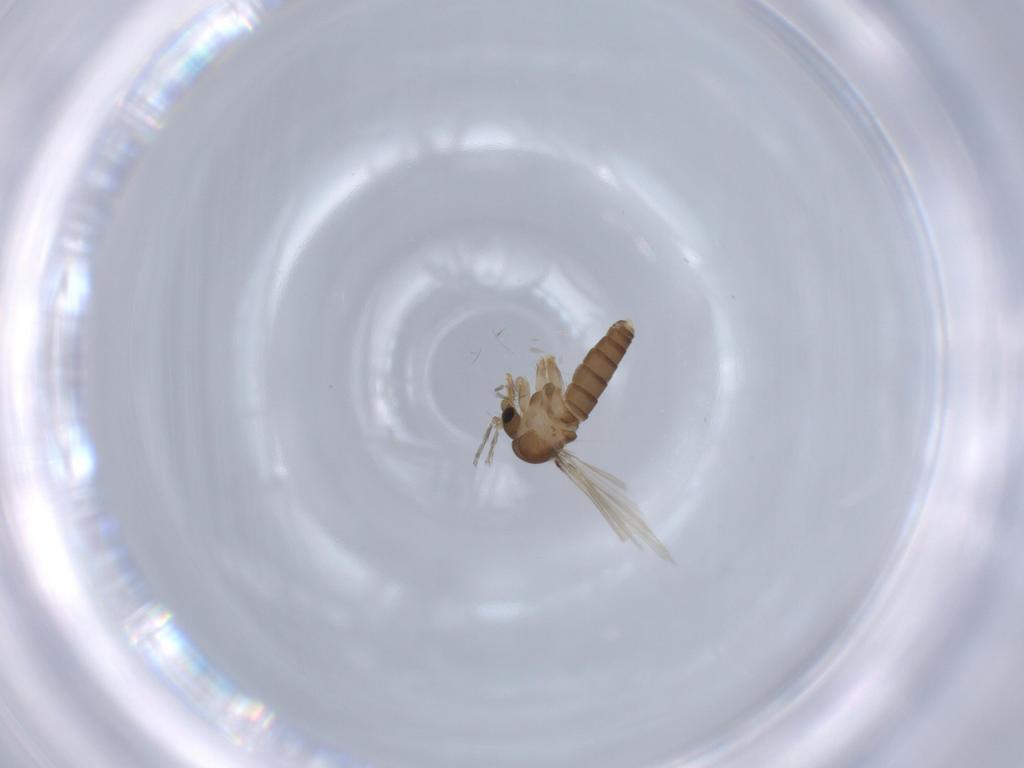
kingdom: Animalia
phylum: Arthropoda
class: Insecta
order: Diptera
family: Psychodidae
